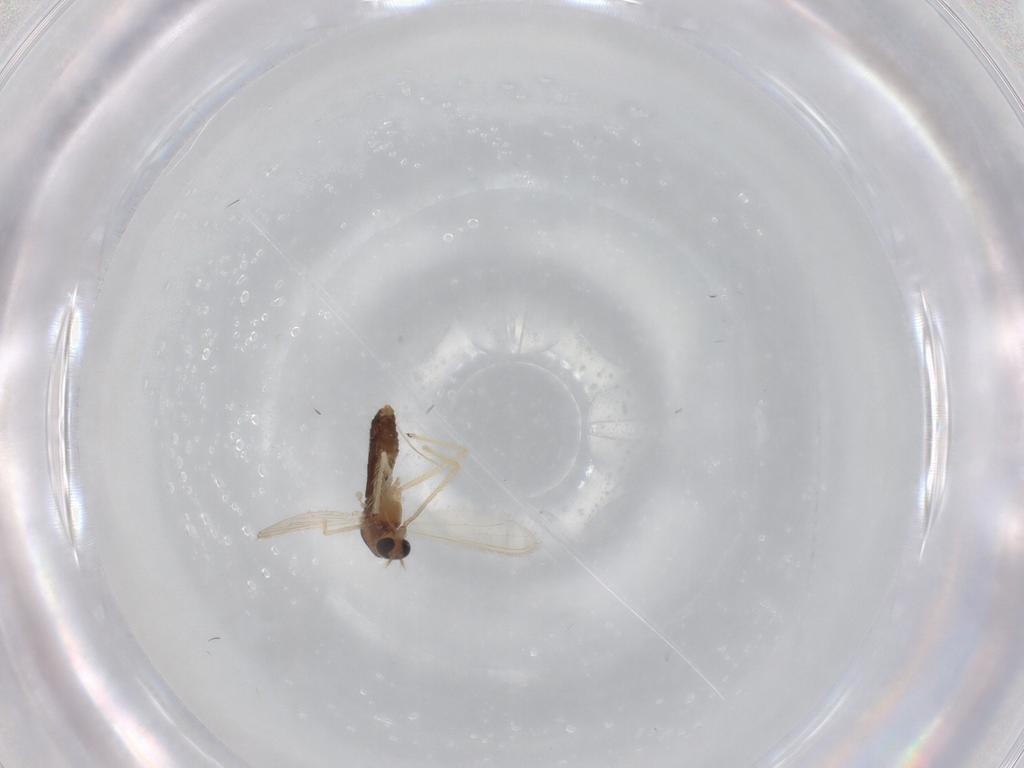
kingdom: Animalia
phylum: Arthropoda
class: Insecta
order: Diptera
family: Chironomidae
